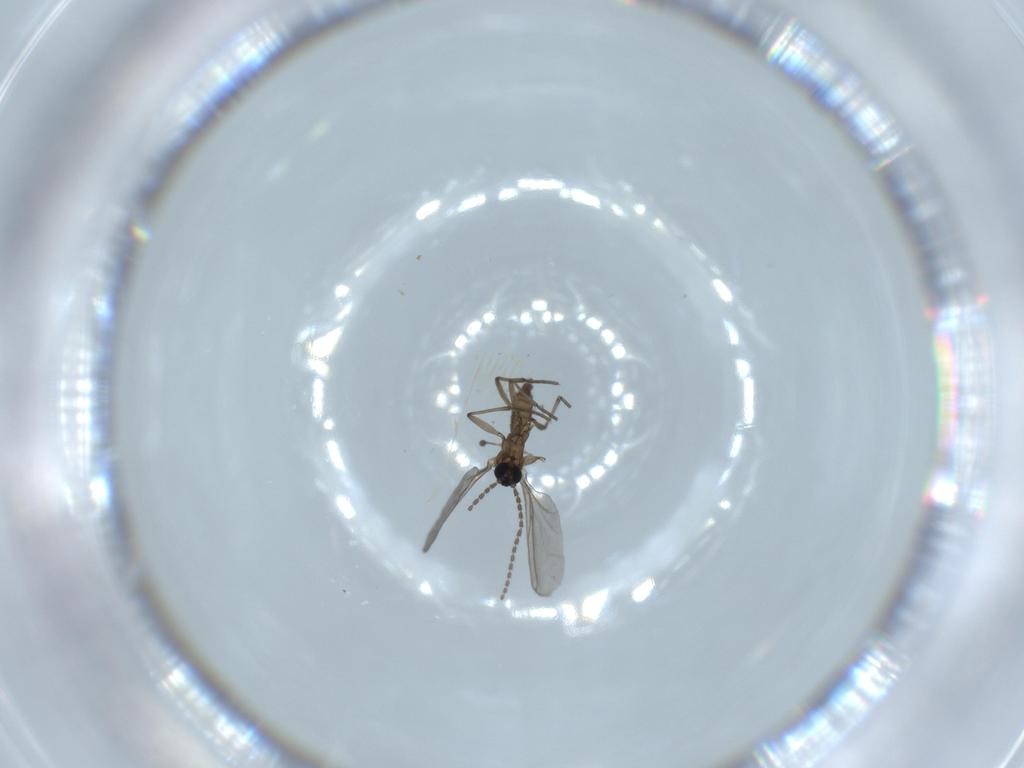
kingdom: Animalia
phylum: Arthropoda
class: Insecta
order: Diptera
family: Sciaridae
